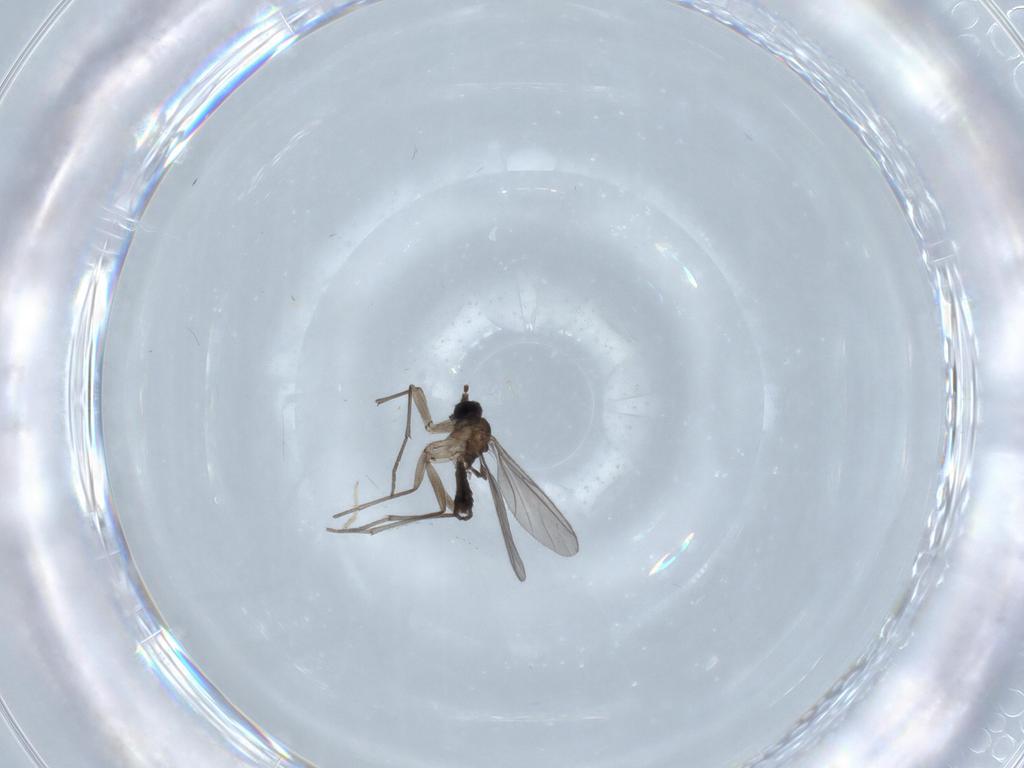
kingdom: Animalia
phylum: Arthropoda
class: Insecta
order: Diptera
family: Sciaridae
